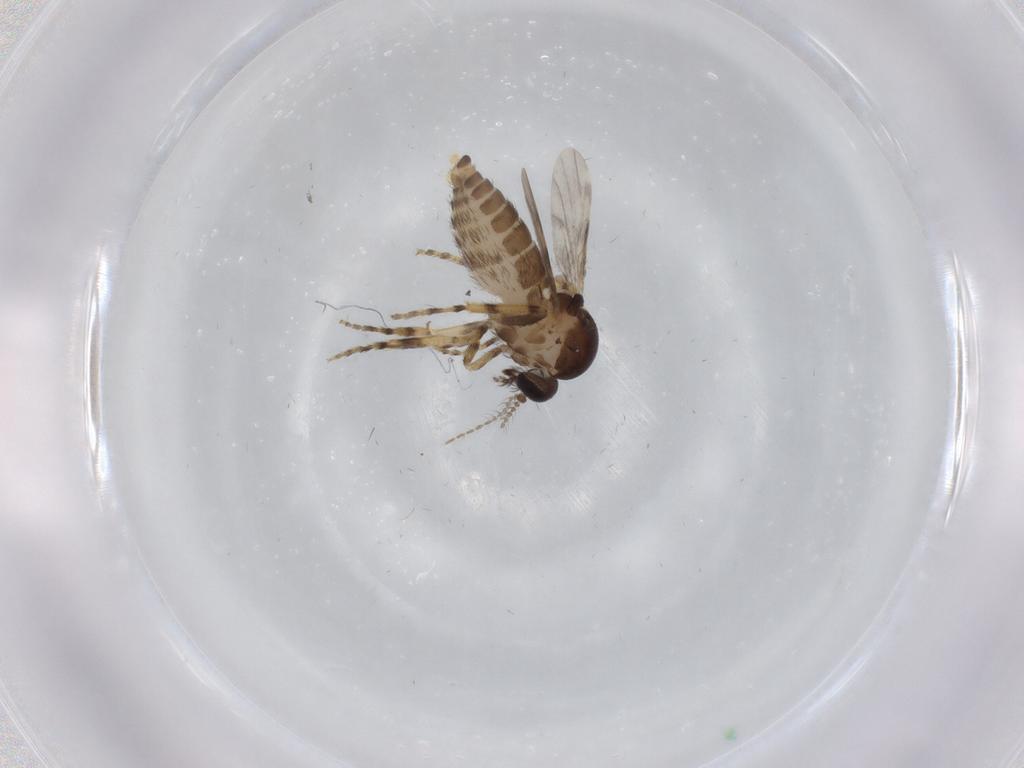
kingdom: Animalia
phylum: Arthropoda
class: Insecta
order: Diptera
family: Ceratopogonidae
